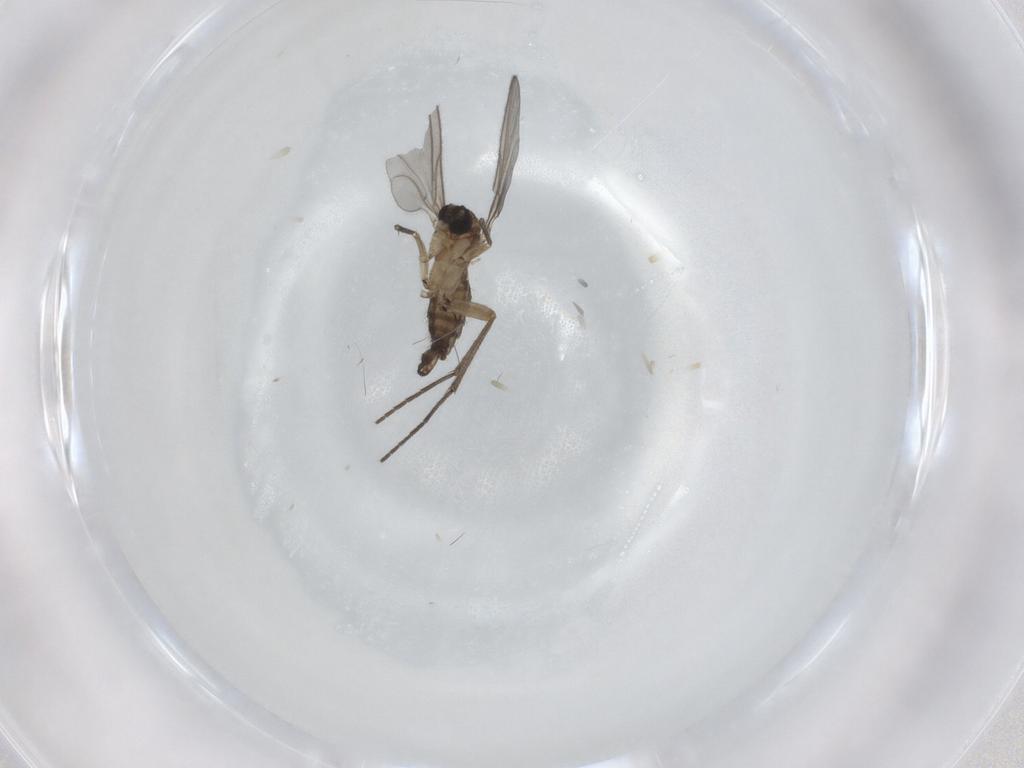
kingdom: Animalia
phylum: Arthropoda
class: Insecta
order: Diptera
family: Sciaridae
